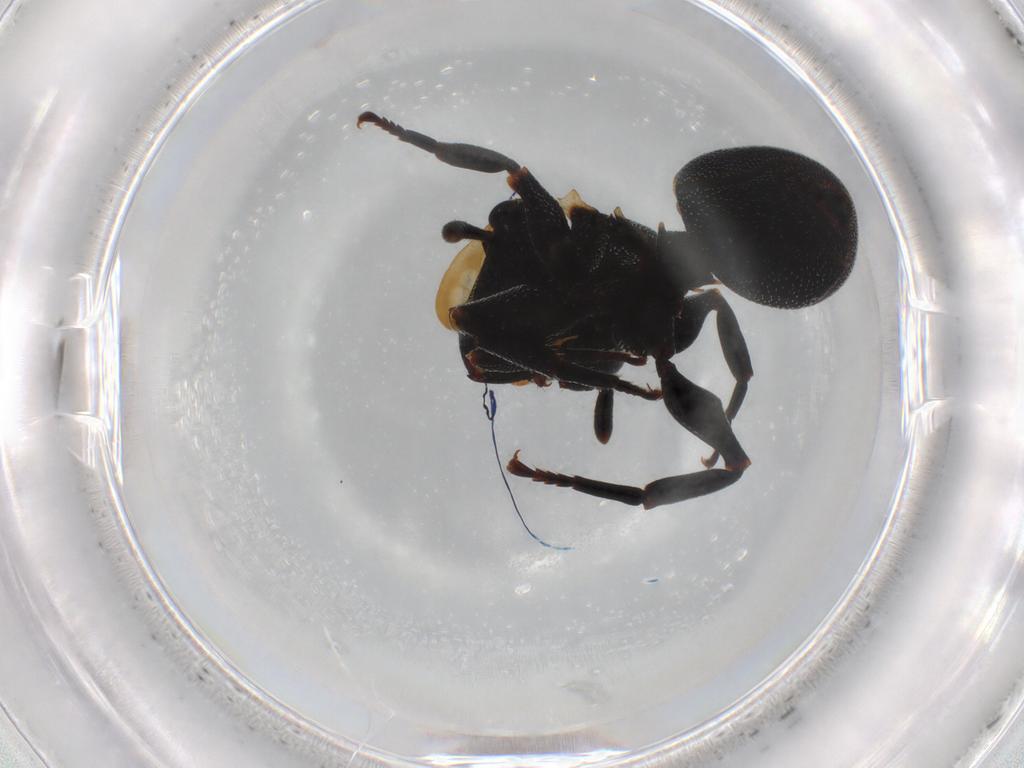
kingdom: Animalia
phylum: Arthropoda
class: Insecta
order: Hymenoptera
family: Formicidae
